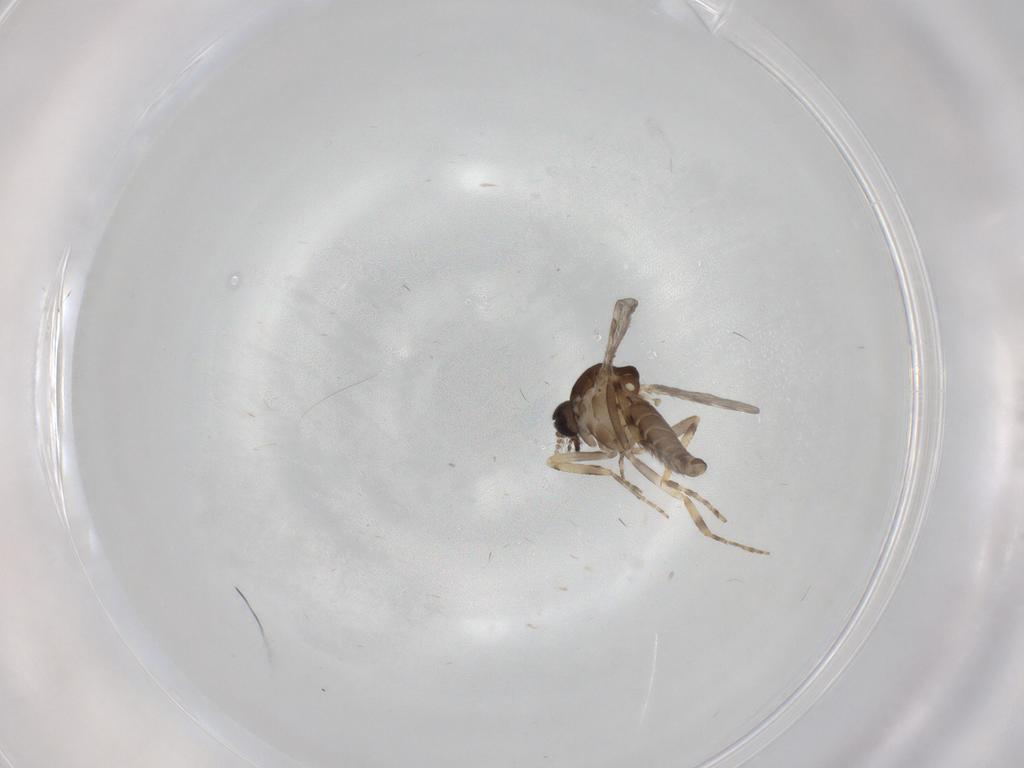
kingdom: Animalia
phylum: Arthropoda
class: Insecta
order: Diptera
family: Ceratopogonidae
